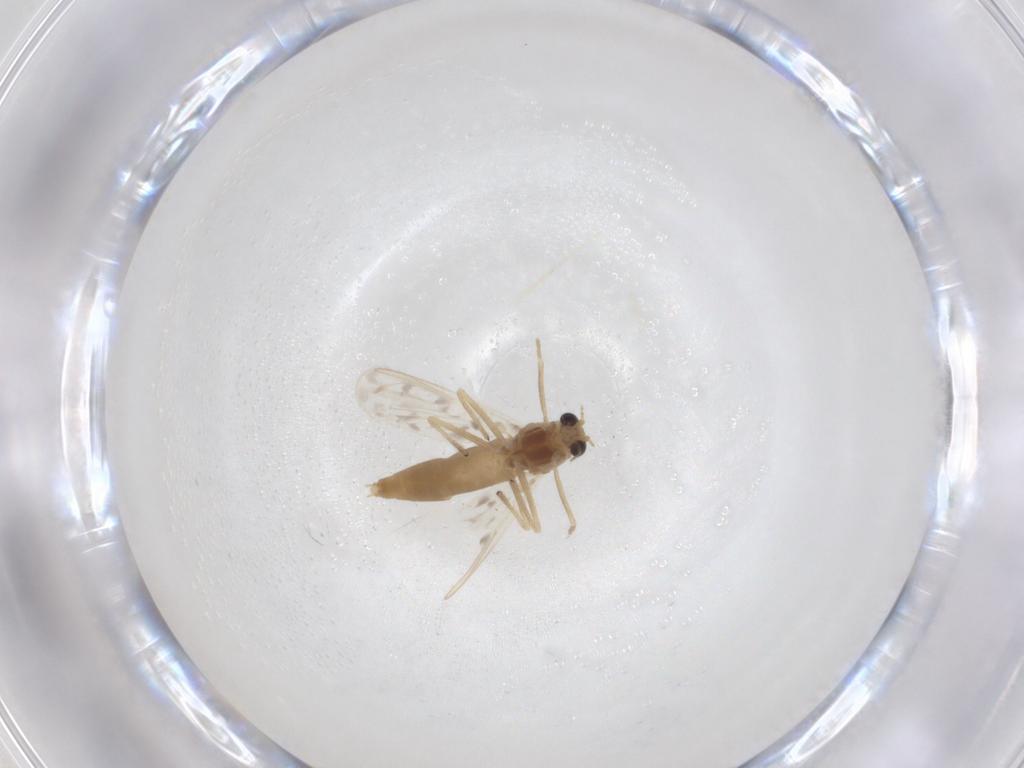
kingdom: Animalia
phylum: Arthropoda
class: Insecta
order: Diptera
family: Chironomidae
